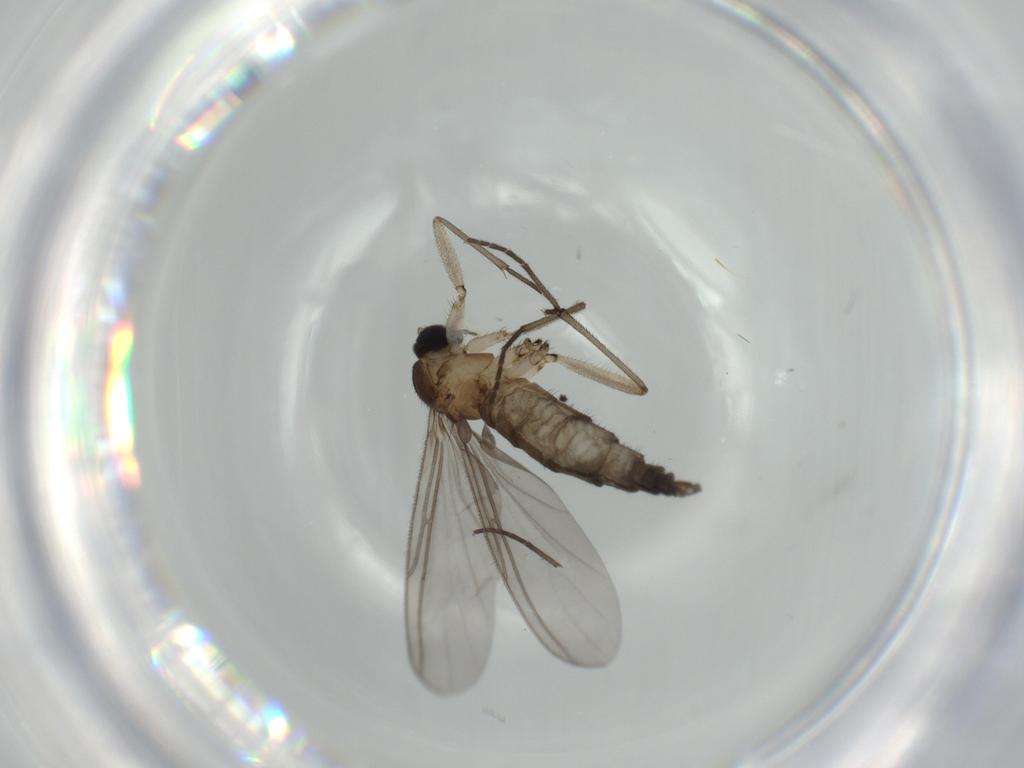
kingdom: Animalia
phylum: Arthropoda
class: Insecta
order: Diptera
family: Sciaridae
